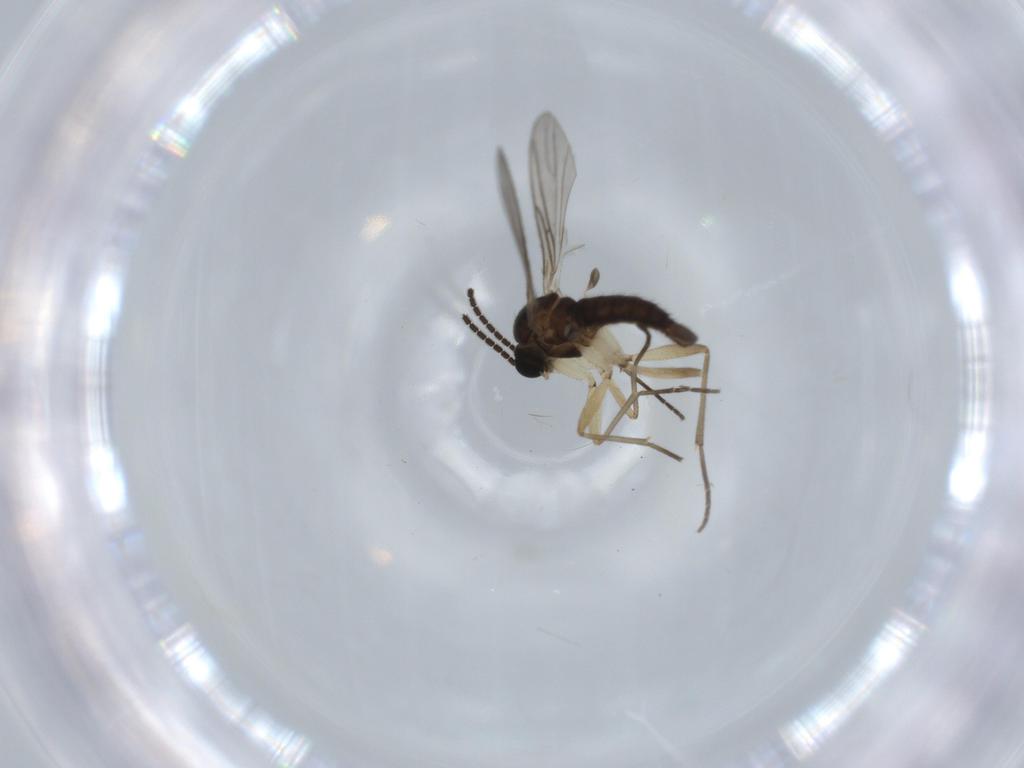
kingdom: Animalia
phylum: Arthropoda
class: Insecta
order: Diptera
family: Sciaridae
